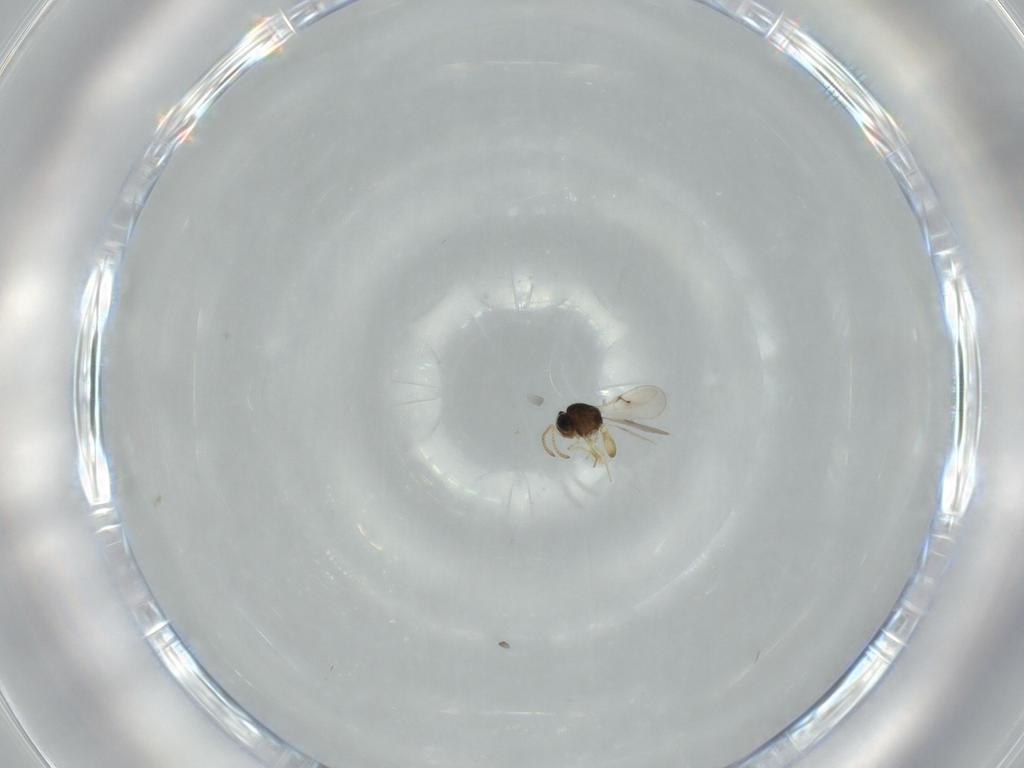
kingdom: Animalia
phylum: Arthropoda
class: Insecta
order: Hymenoptera
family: Scelionidae
